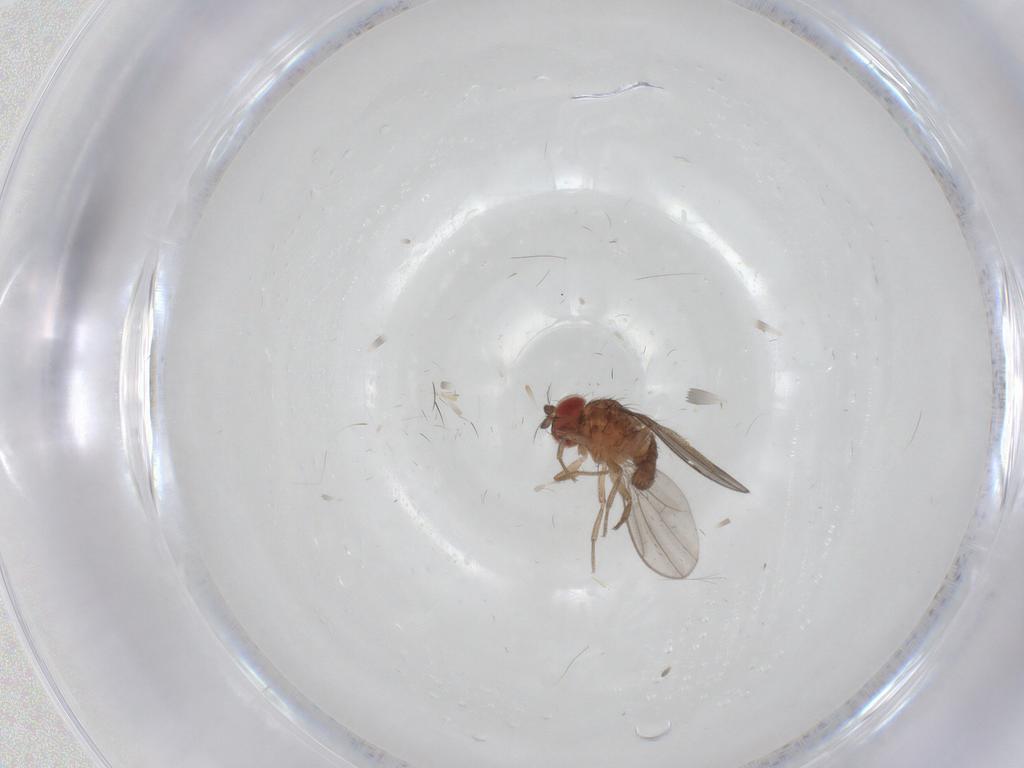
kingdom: Animalia
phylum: Arthropoda
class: Insecta
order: Diptera
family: Drosophilidae
